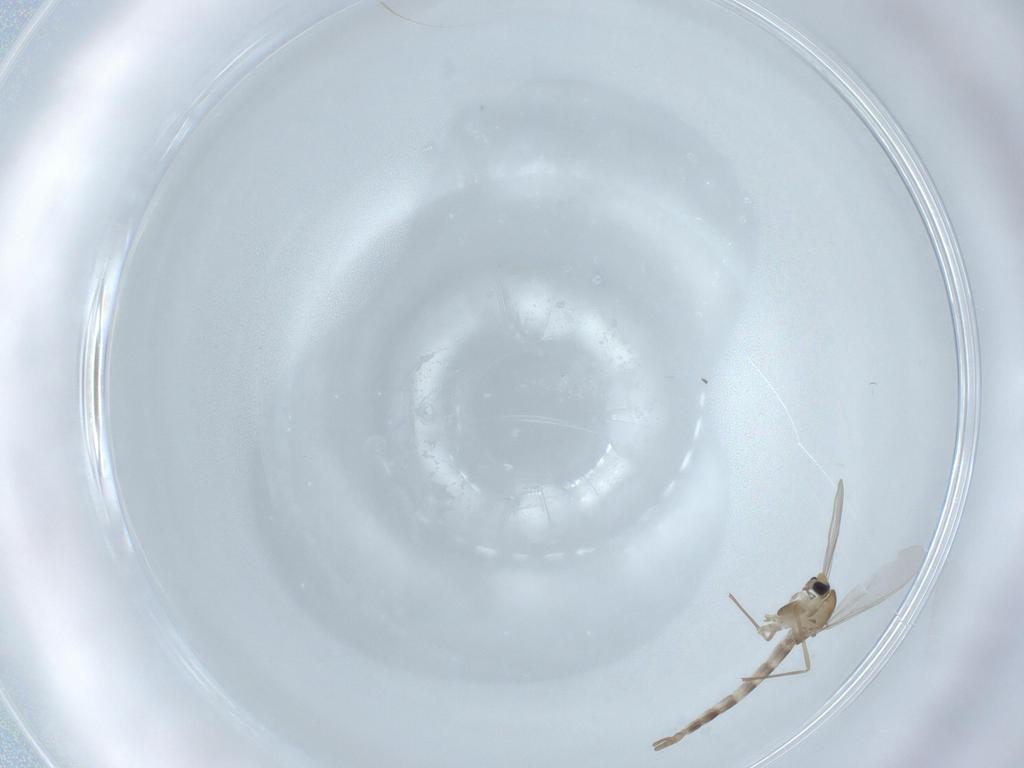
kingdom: Animalia
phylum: Arthropoda
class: Insecta
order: Diptera
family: Chironomidae
